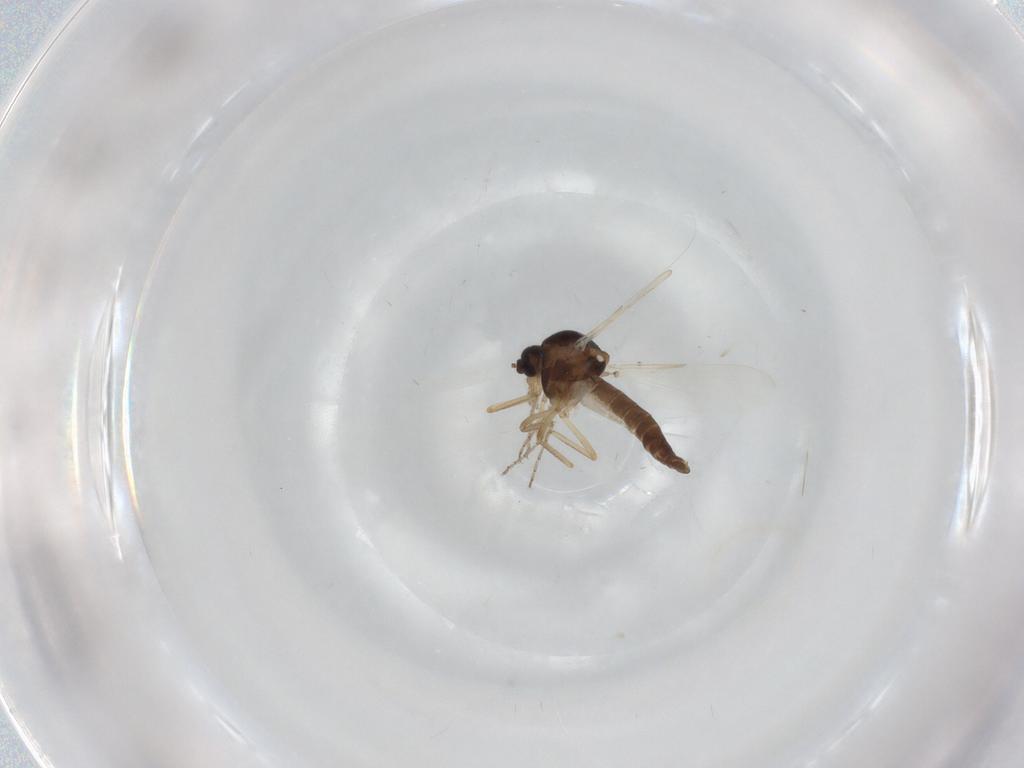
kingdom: Animalia
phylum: Arthropoda
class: Insecta
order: Diptera
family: Ceratopogonidae
